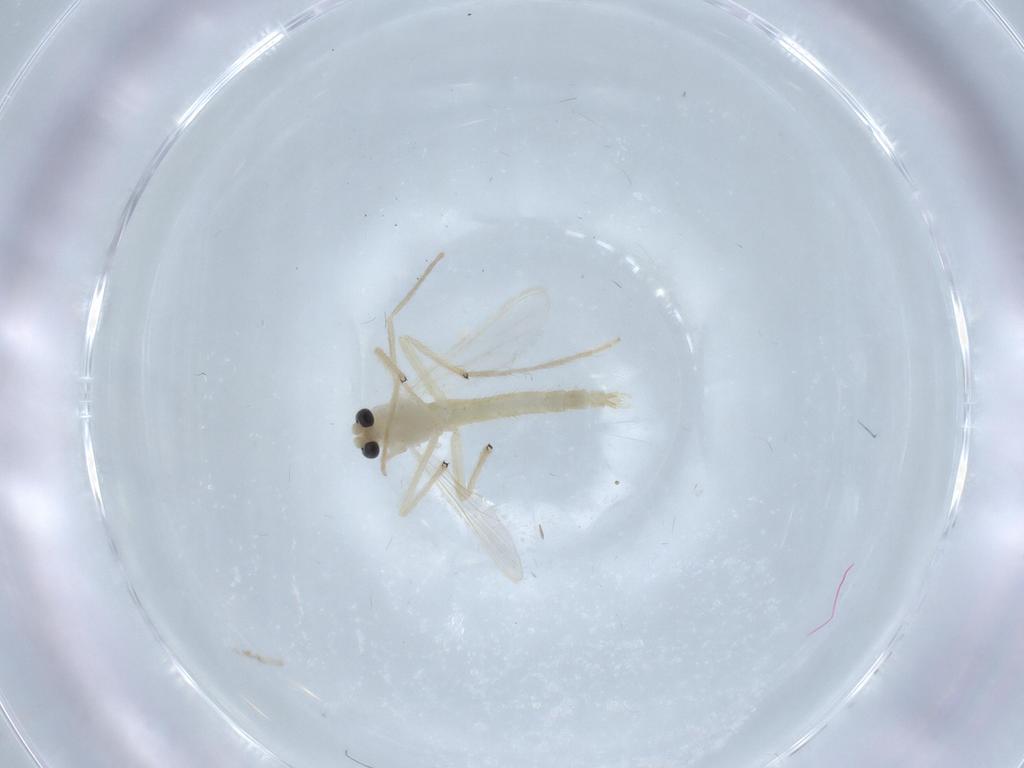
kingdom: Animalia
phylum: Arthropoda
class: Insecta
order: Diptera
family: Chironomidae
